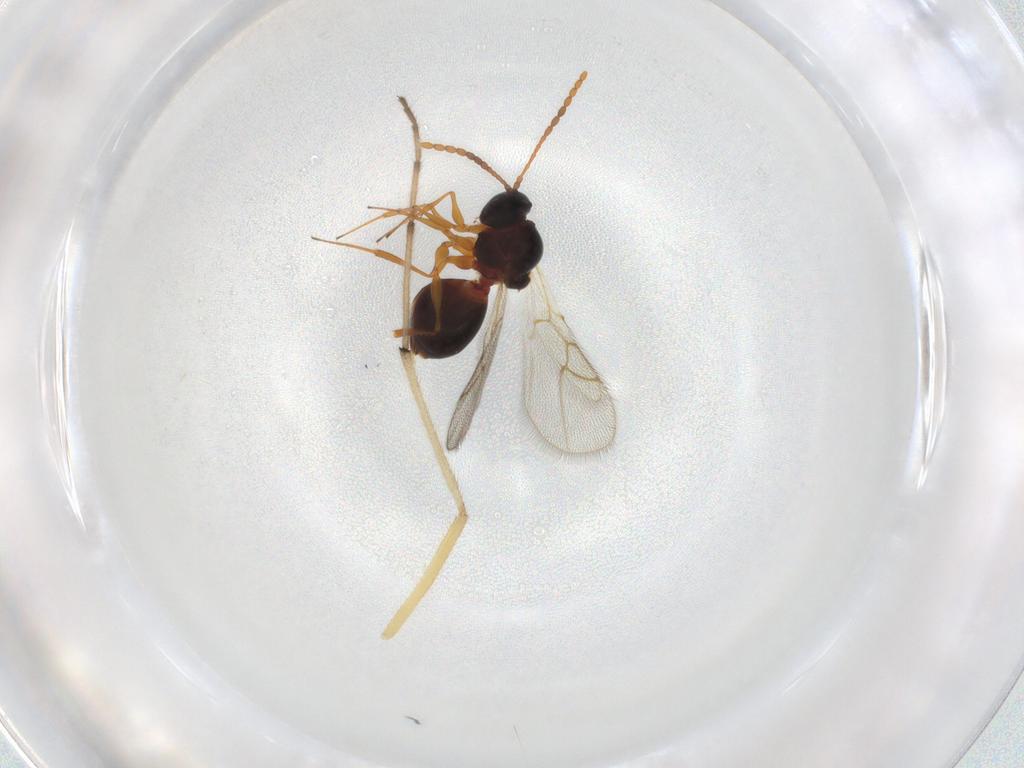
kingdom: Animalia
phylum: Arthropoda
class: Insecta
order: Hymenoptera
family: Figitidae
